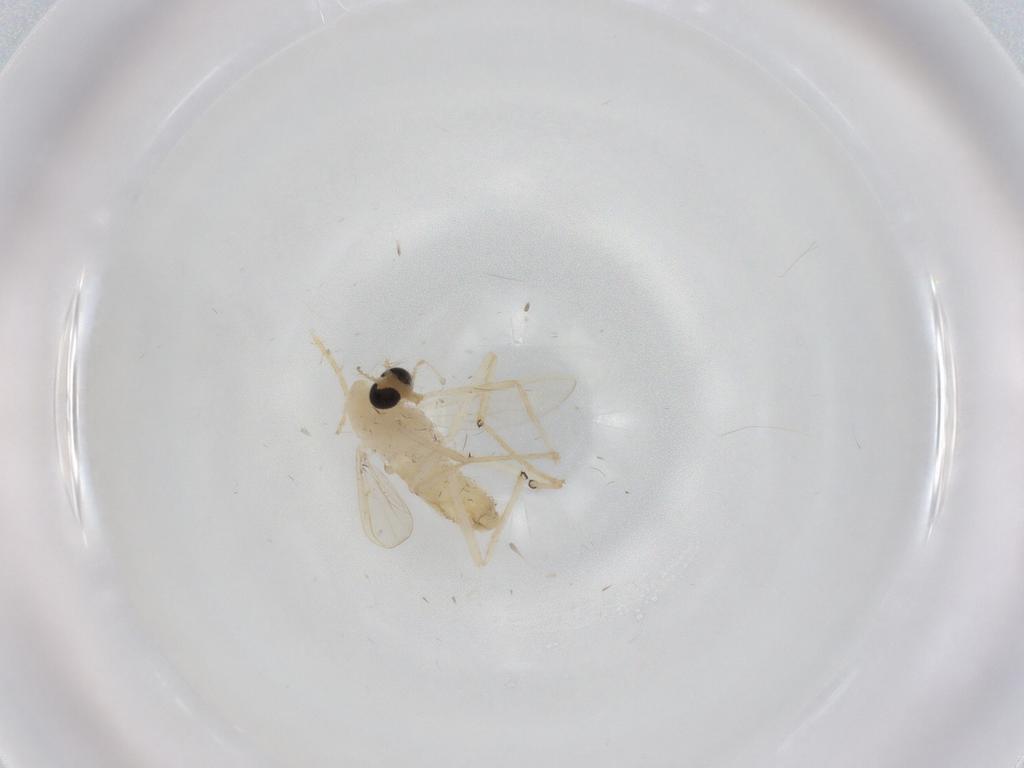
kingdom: Animalia
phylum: Arthropoda
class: Insecta
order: Diptera
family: Chironomidae
